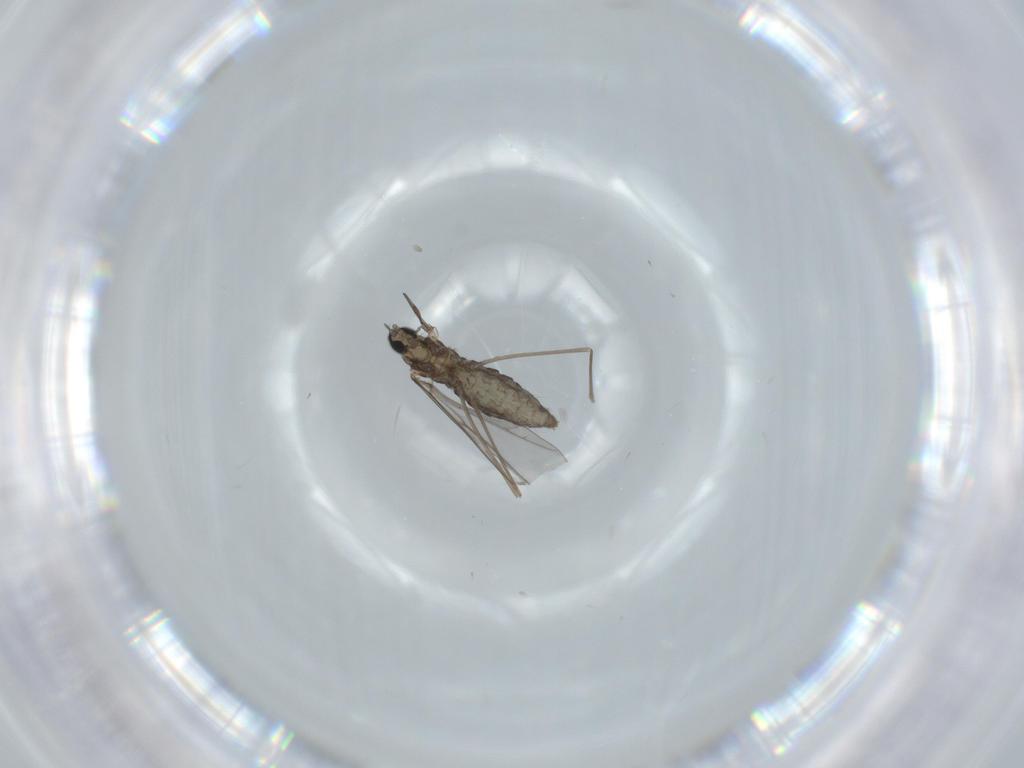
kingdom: Animalia
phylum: Arthropoda
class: Insecta
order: Diptera
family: Cecidomyiidae
